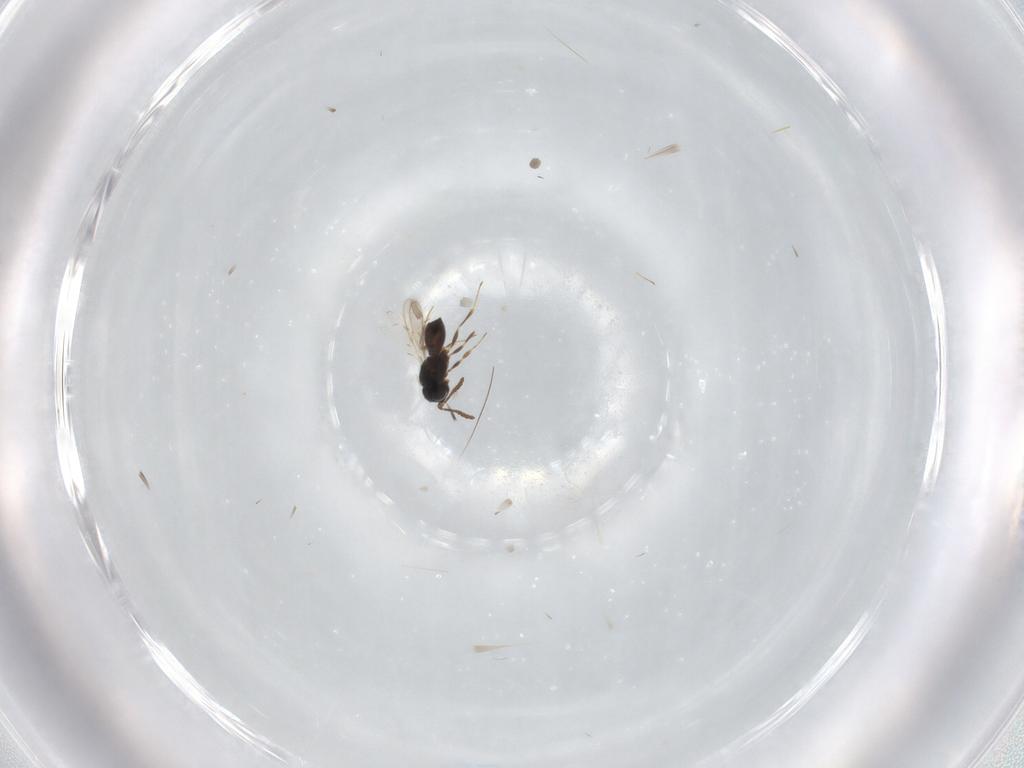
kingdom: Animalia
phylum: Arthropoda
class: Insecta
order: Hymenoptera
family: Scelionidae
